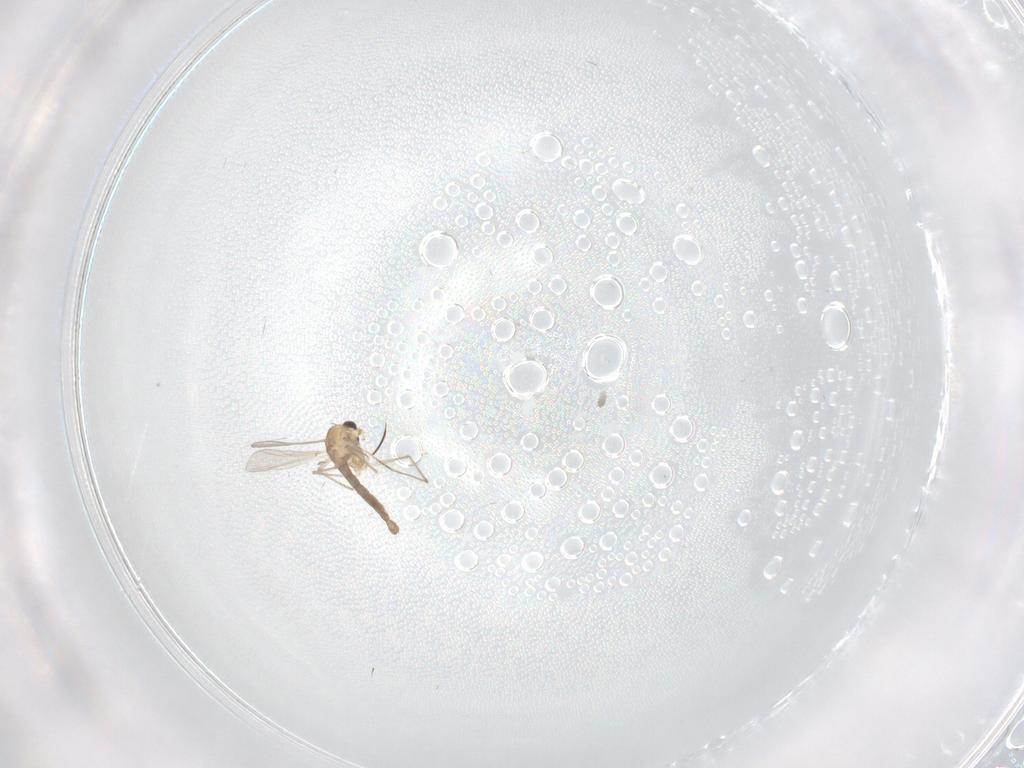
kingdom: Animalia
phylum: Arthropoda
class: Insecta
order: Diptera
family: Chironomidae
